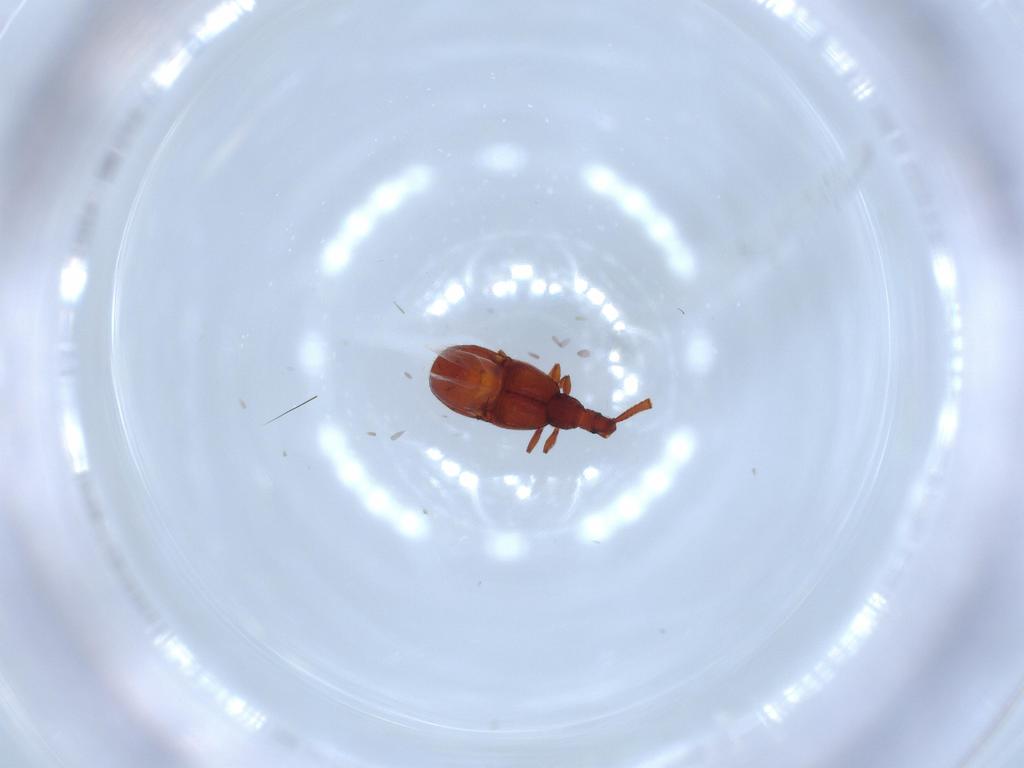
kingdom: Animalia
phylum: Arthropoda
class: Insecta
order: Coleoptera
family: Staphylinidae
